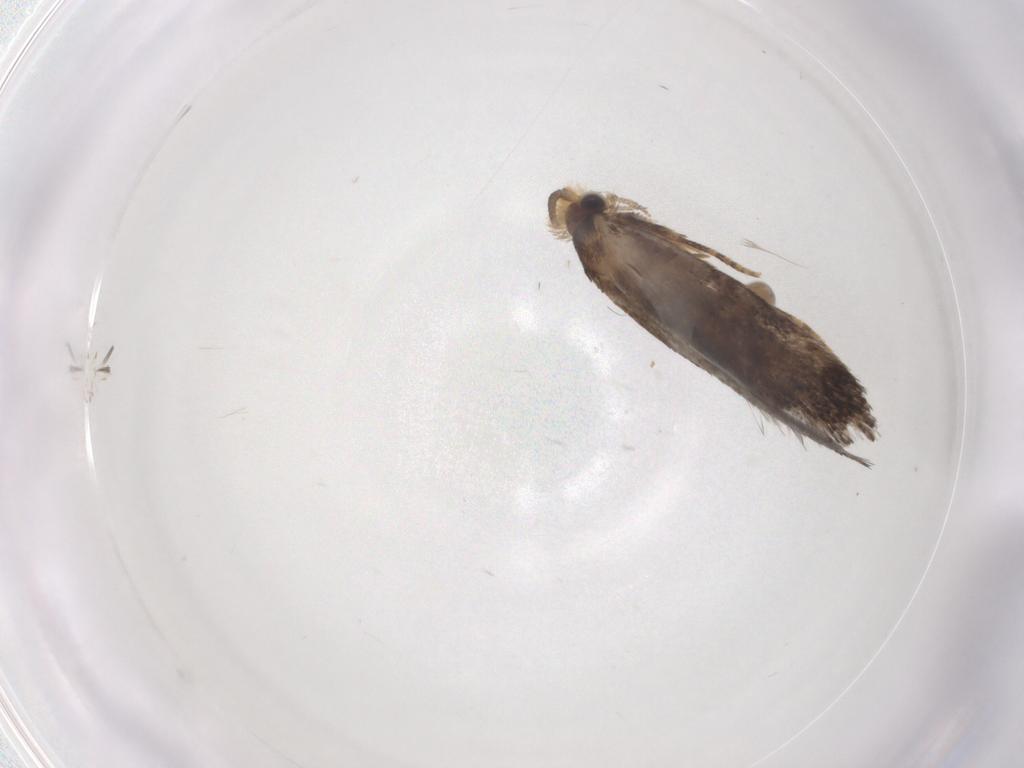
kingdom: Animalia
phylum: Arthropoda
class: Insecta
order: Lepidoptera
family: Tineidae
